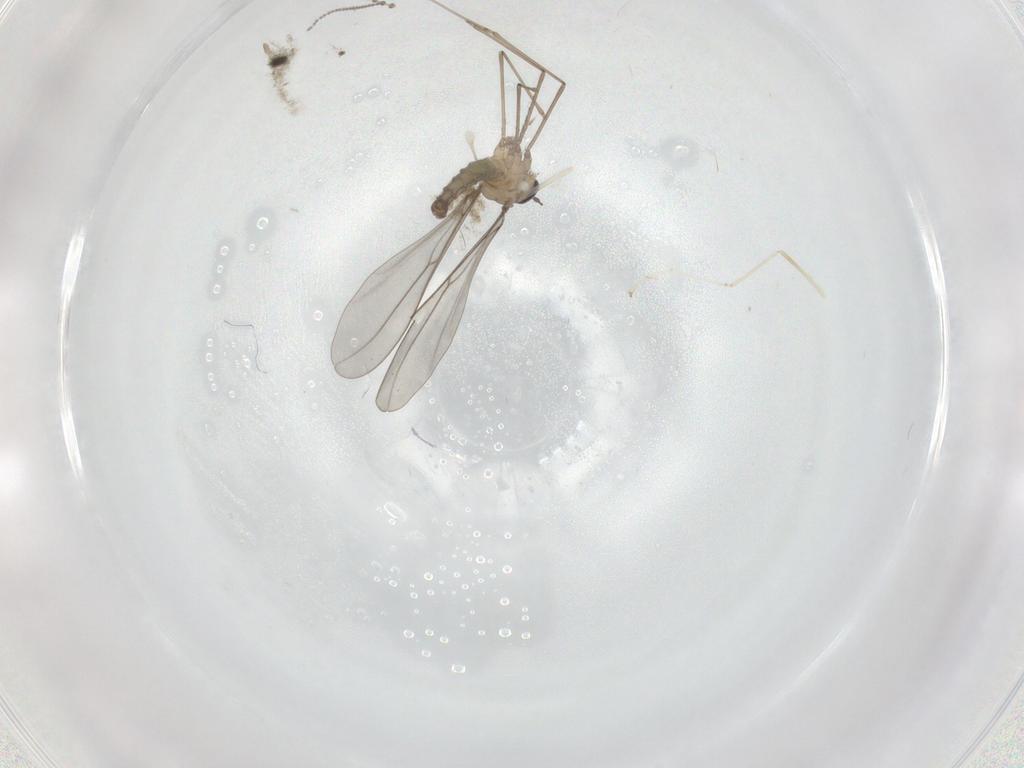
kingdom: Animalia
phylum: Arthropoda
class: Insecta
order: Diptera
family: Psychodidae
